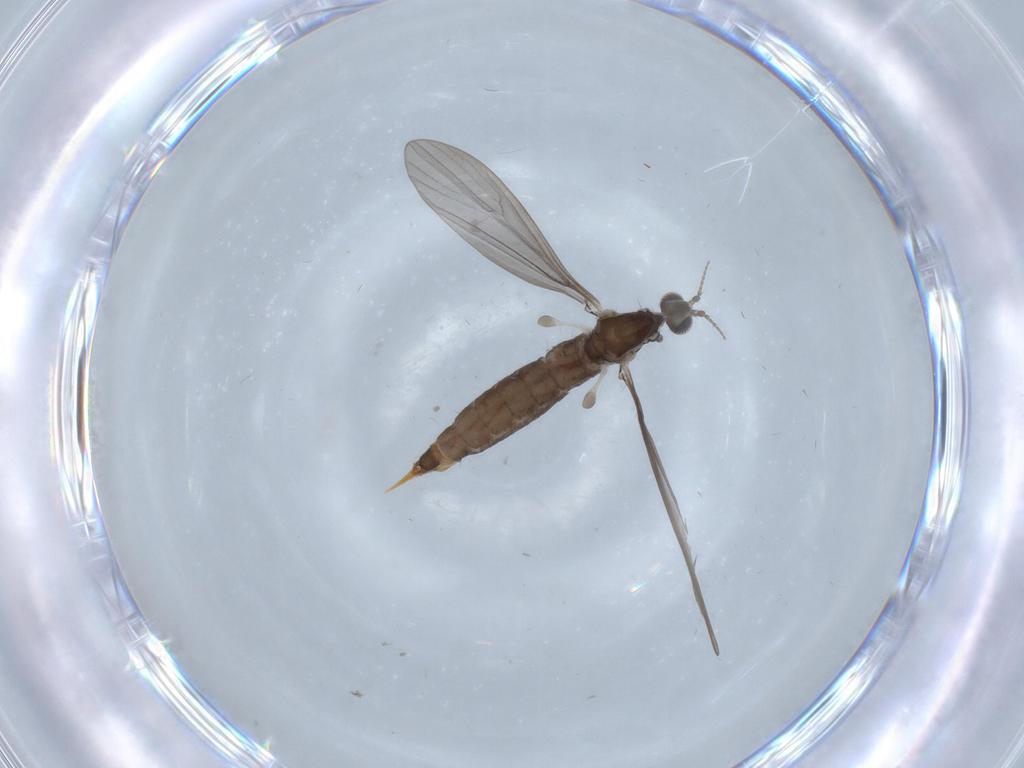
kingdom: Animalia
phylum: Arthropoda
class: Insecta
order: Diptera
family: Limoniidae
